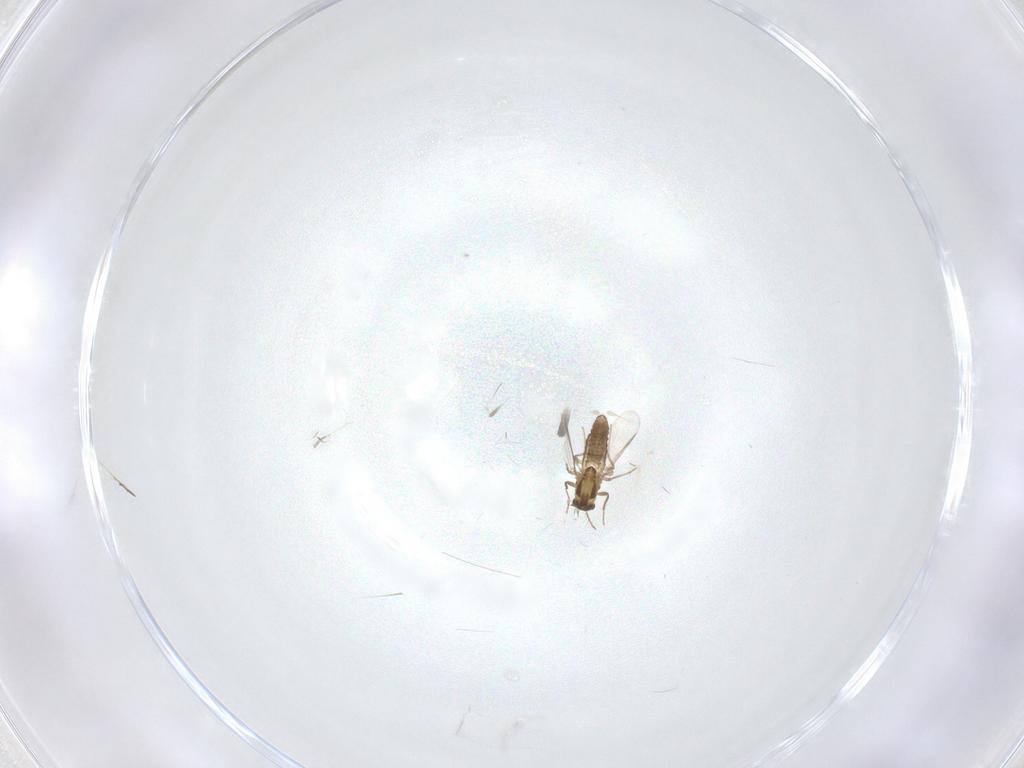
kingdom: Animalia
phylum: Arthropoda
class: Insecta
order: Diptera
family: Chironomidae
